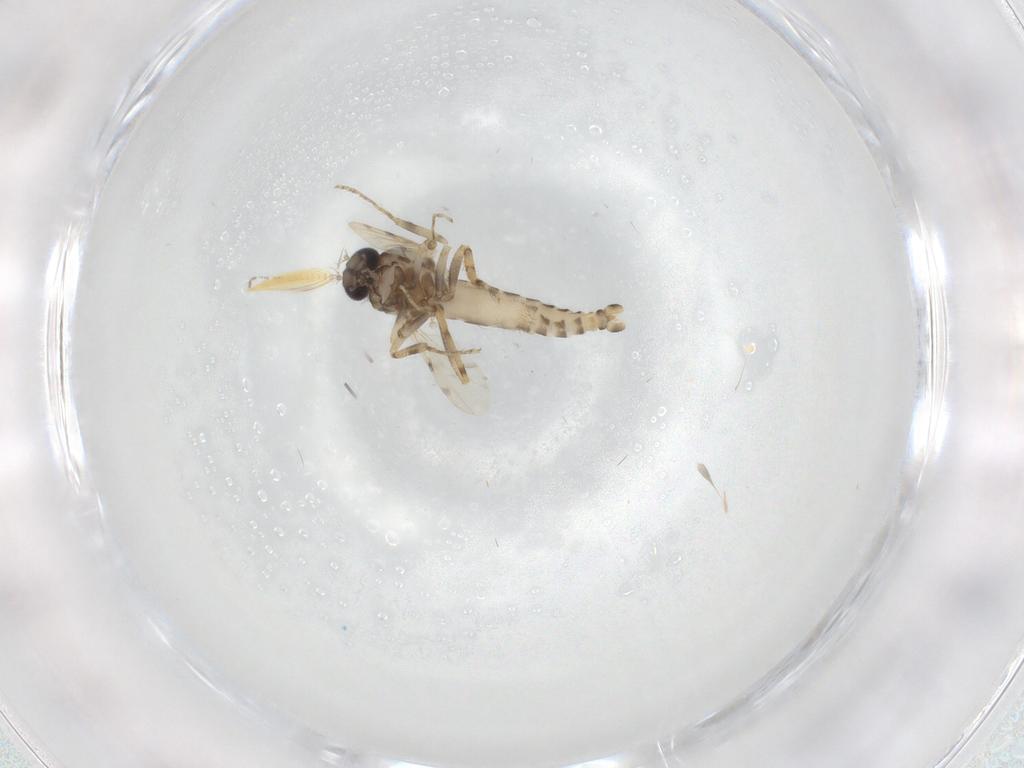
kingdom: Animalia
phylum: Arthropoda
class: Insecta
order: Diptera
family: Ceratopogonidae
